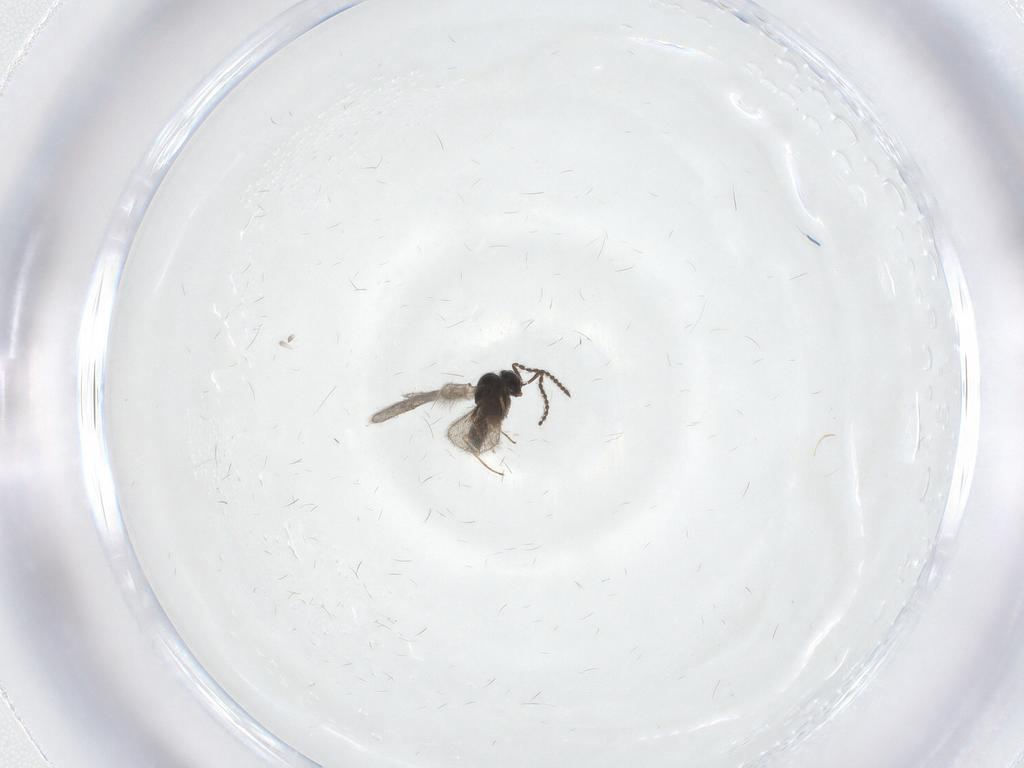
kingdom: Animalia
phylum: Arthropoda
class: Insecta
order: Hymenoptera
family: Scelionidae
